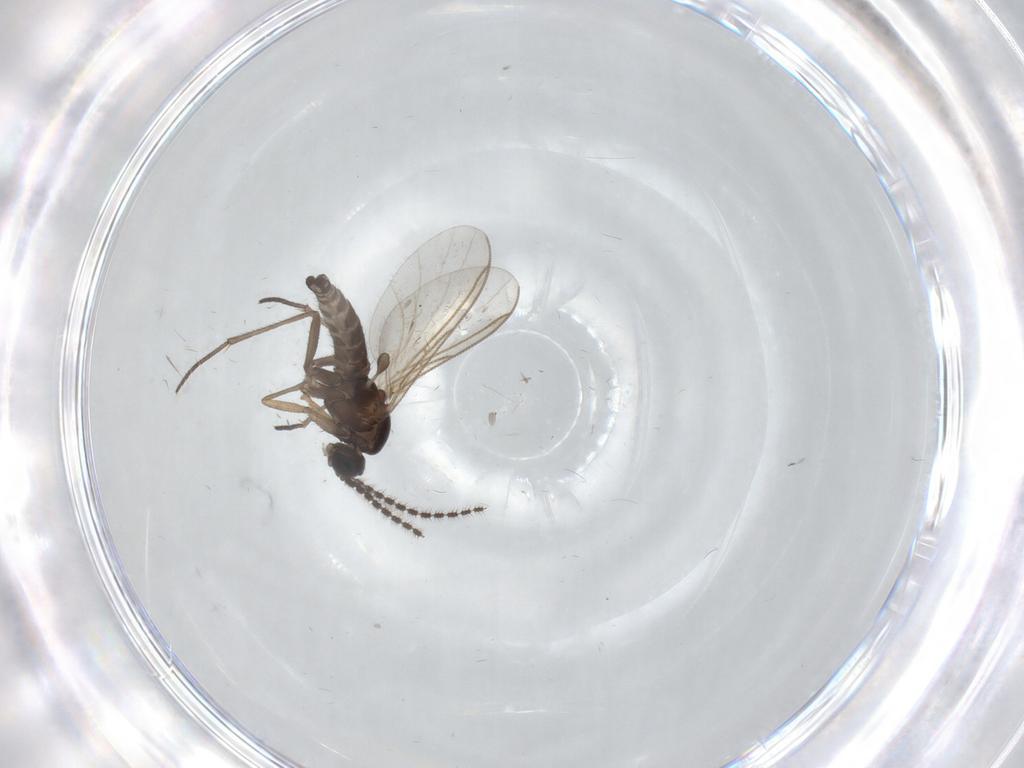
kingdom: Animalia
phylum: Arthropoda
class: Insecta
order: Diptera
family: Sciaridae
